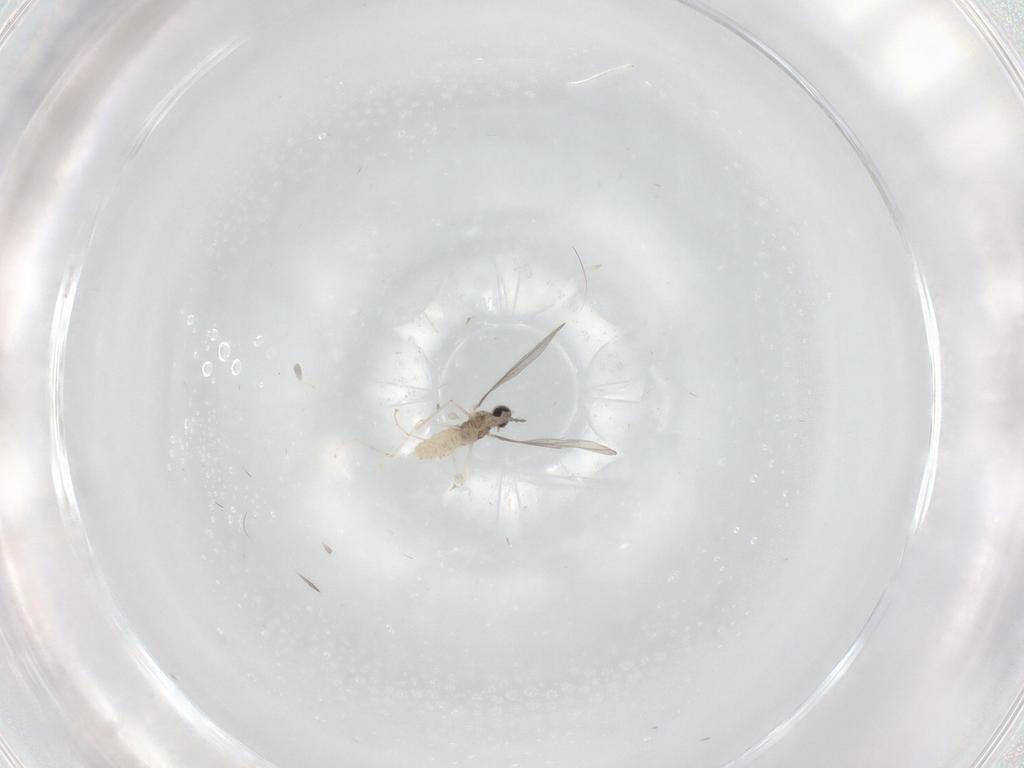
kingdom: Animalia
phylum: Arthropoda
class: Insecta
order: Diptera
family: Cecidomyiidae
